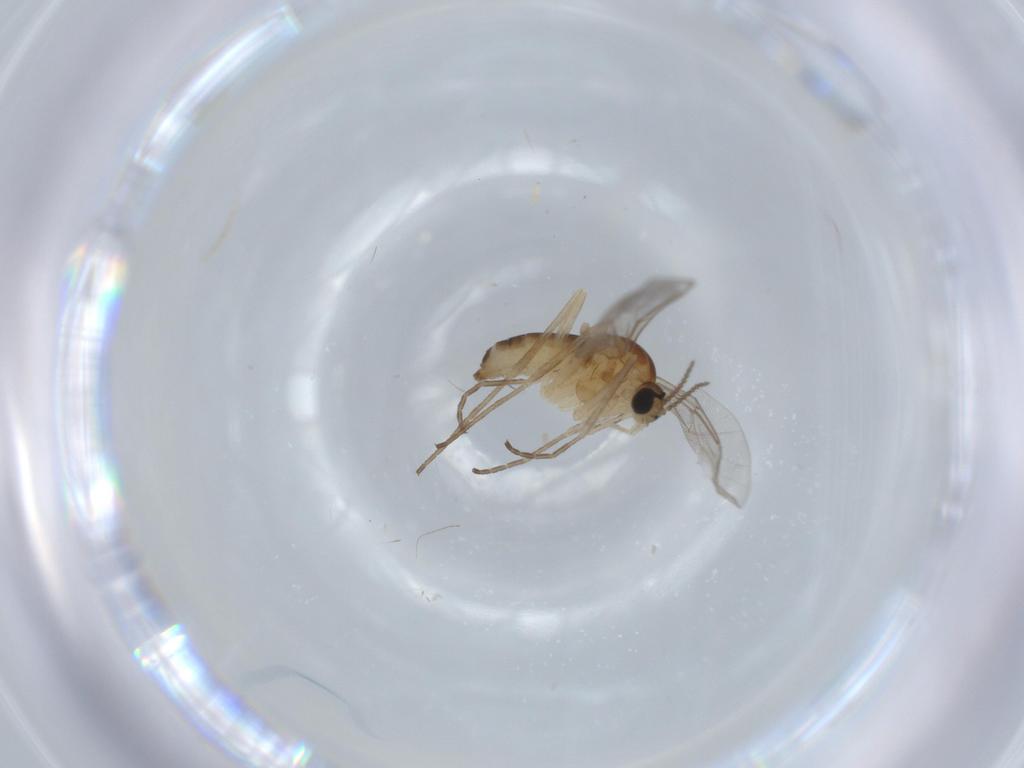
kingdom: Animalia
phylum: Arthropoda
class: Insecta
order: Diptera
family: Cecidomyiidae
